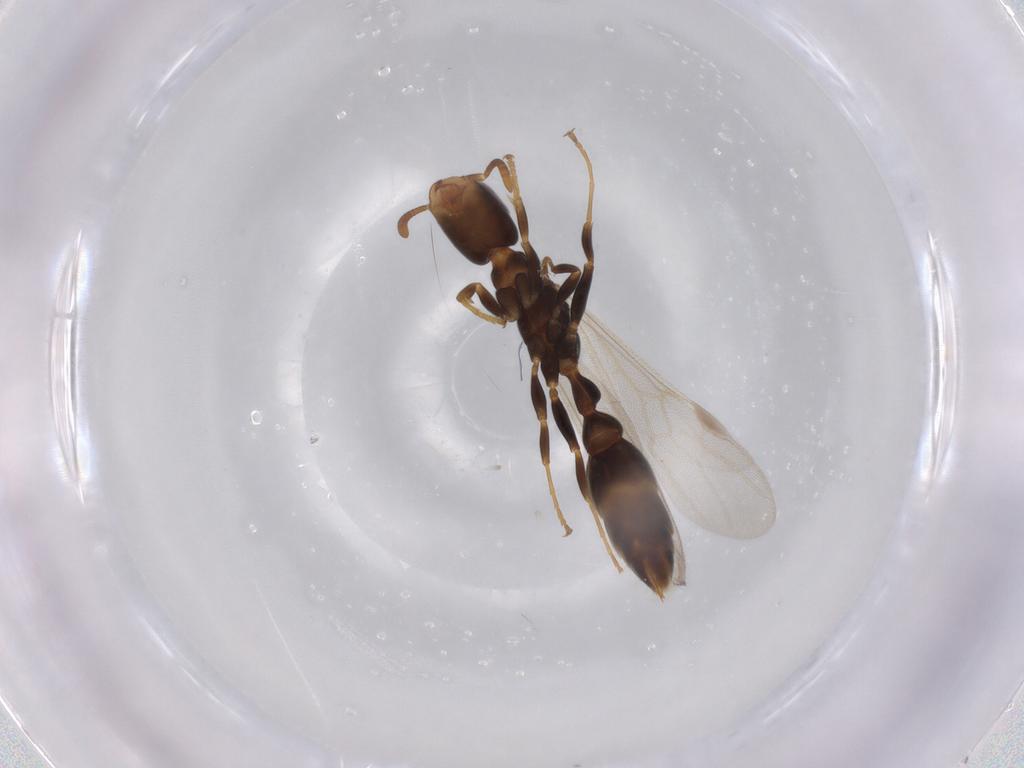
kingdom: Animalia
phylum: Arthropoda
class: Insecta
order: Hymenoptera
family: Formicidae
